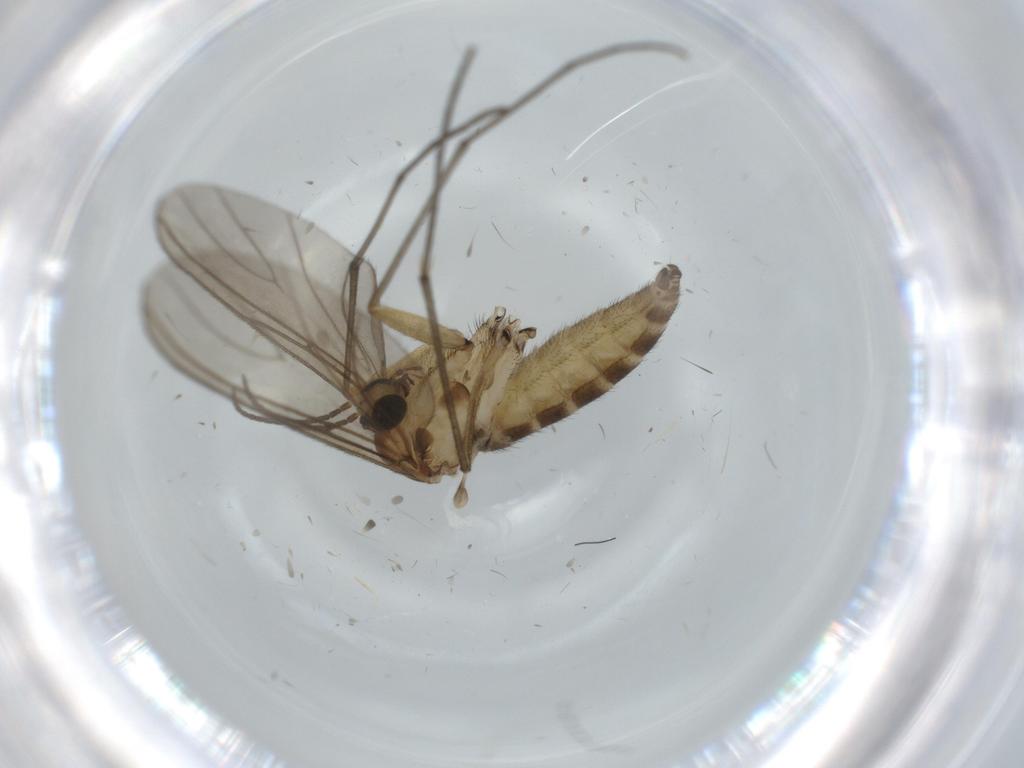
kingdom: Animalia
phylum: Arthropoda
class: Insecta
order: Diptera
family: Sciaridae
